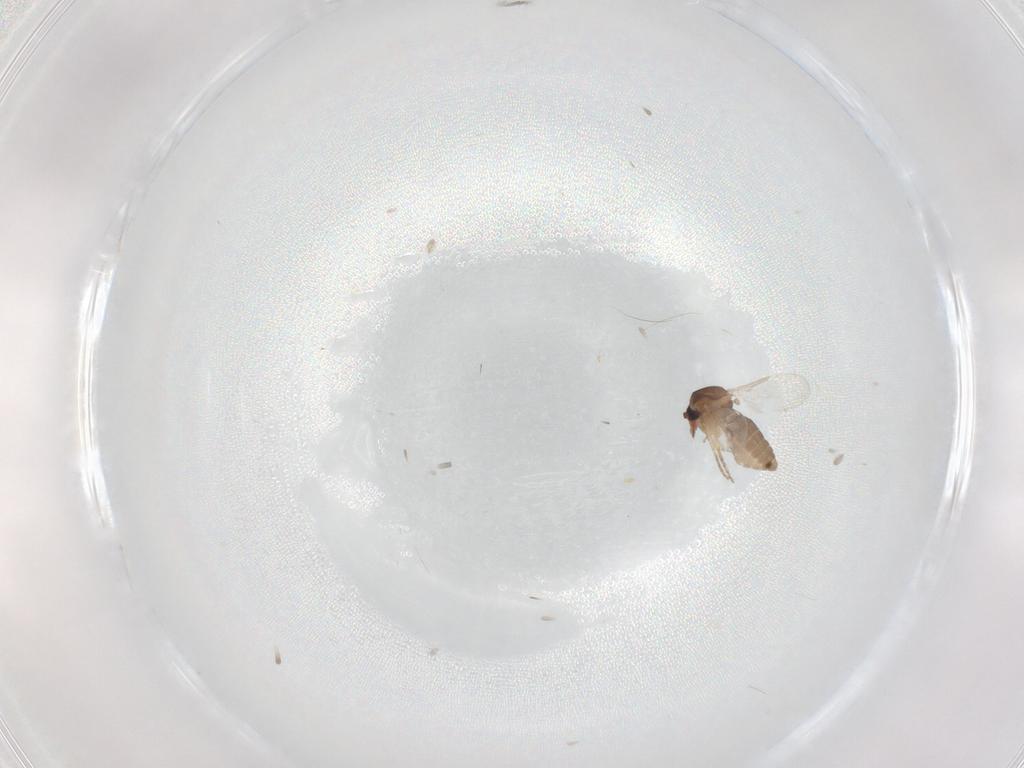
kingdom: Animalia
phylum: Arthropoda
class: Insecta
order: Diptera
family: Ceratopogonidae
